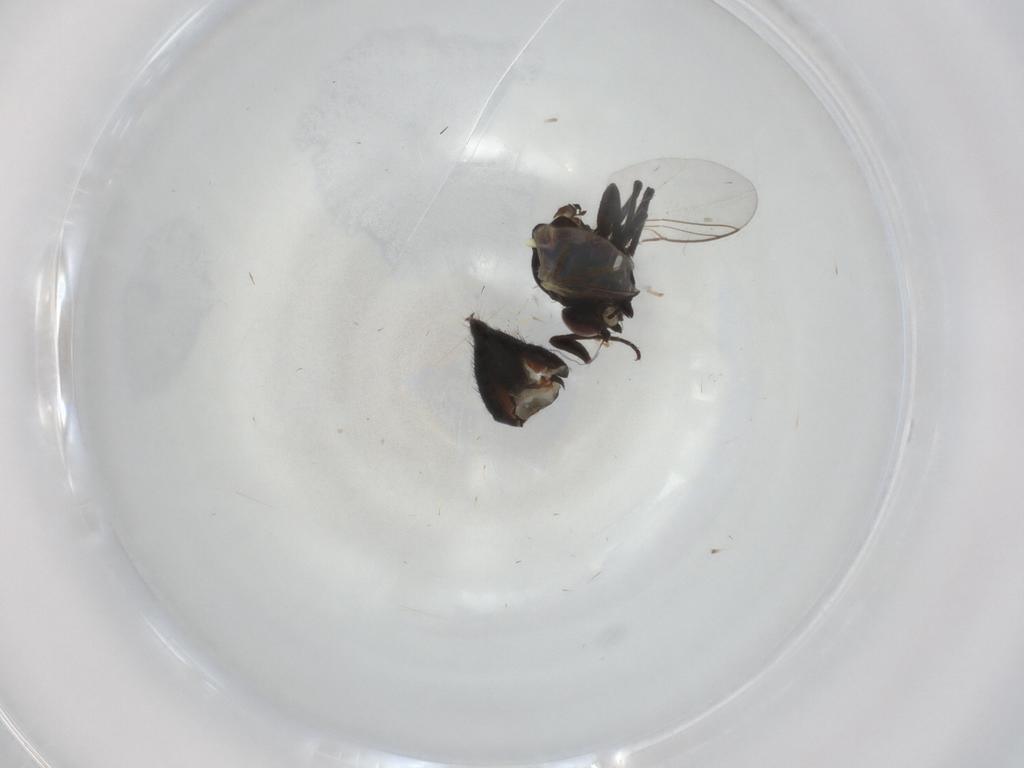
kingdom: Animalia
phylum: Arthropoda
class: Insecta
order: Diptera
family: Agromyzidae
